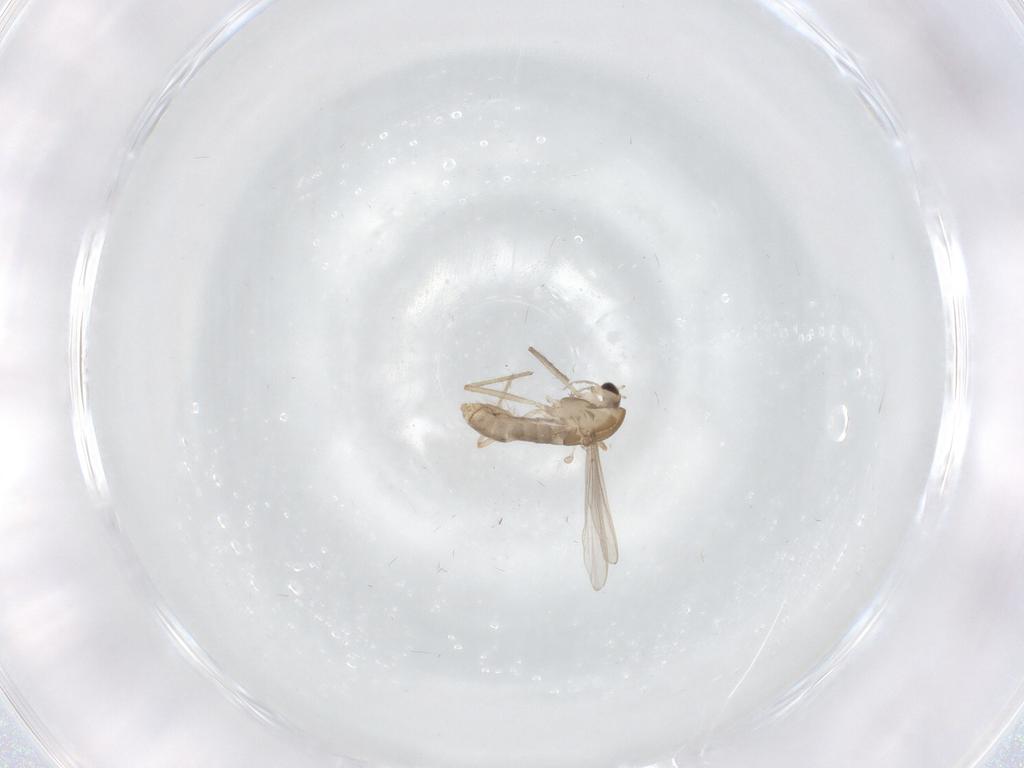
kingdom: Animalia
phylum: Arthropoda
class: Insecta
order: Diptera
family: Chironomidae
